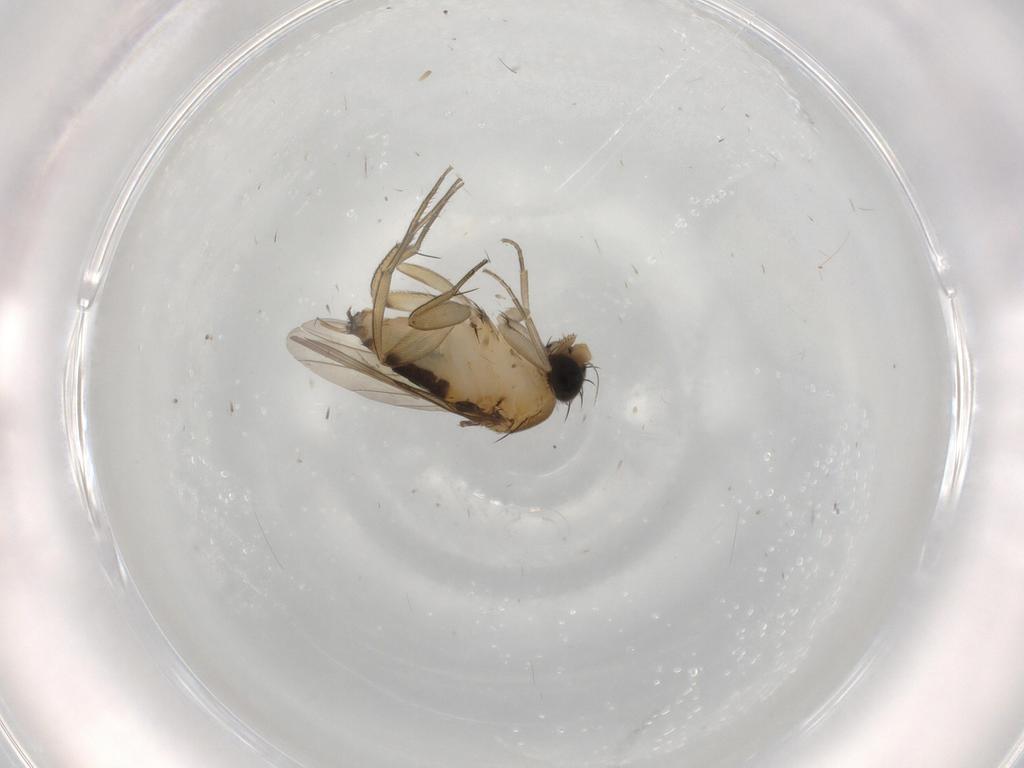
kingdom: Animalia
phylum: Arthropoda
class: Insecta
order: Diptera
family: Phoridae
